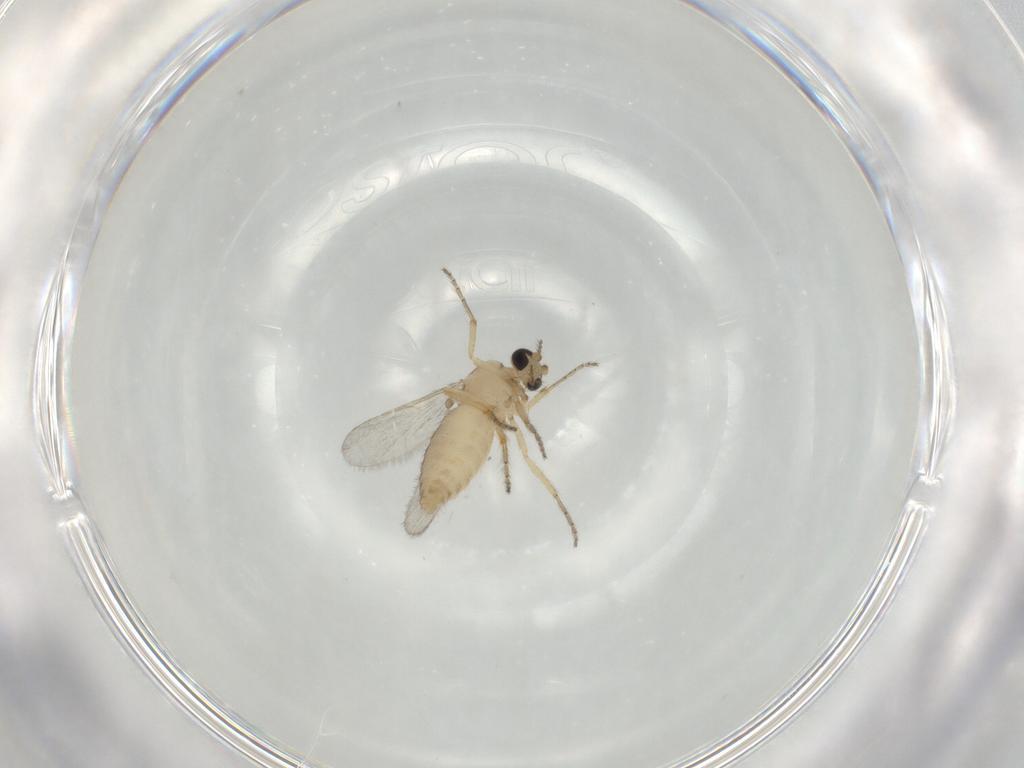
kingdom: Animalia
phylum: Arthropoda
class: Insecta
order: Diptera
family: Ceratopogonidae
